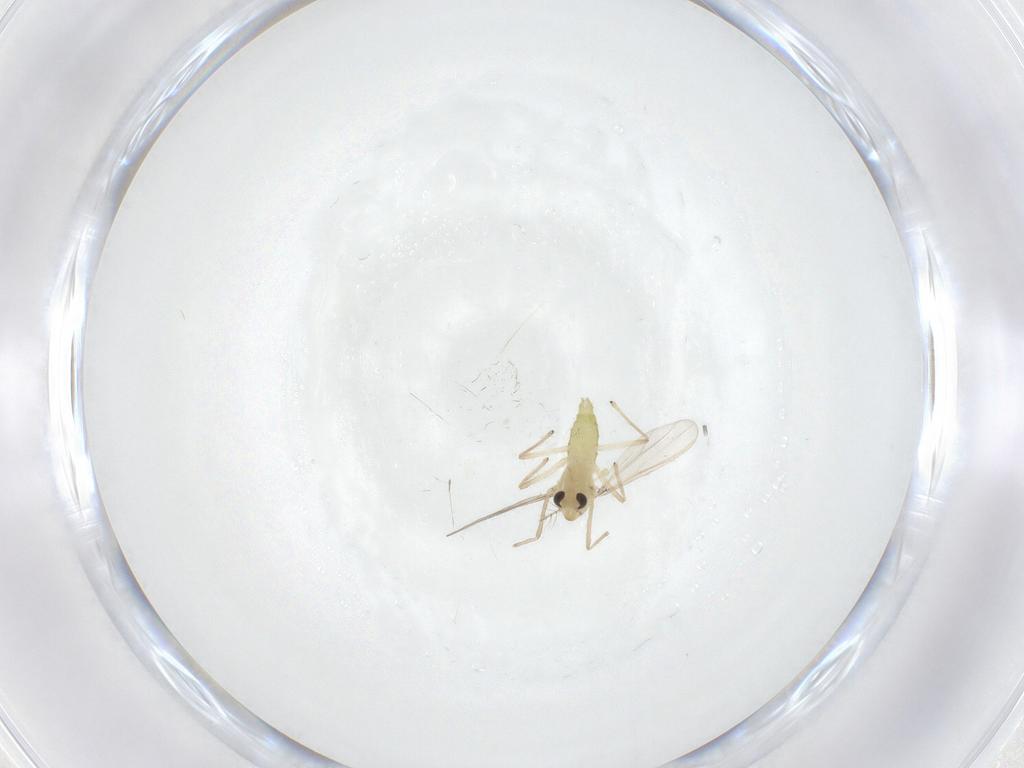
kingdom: Animalia
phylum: Arthropoda
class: Insecta
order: Diptera
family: Chironomidae
